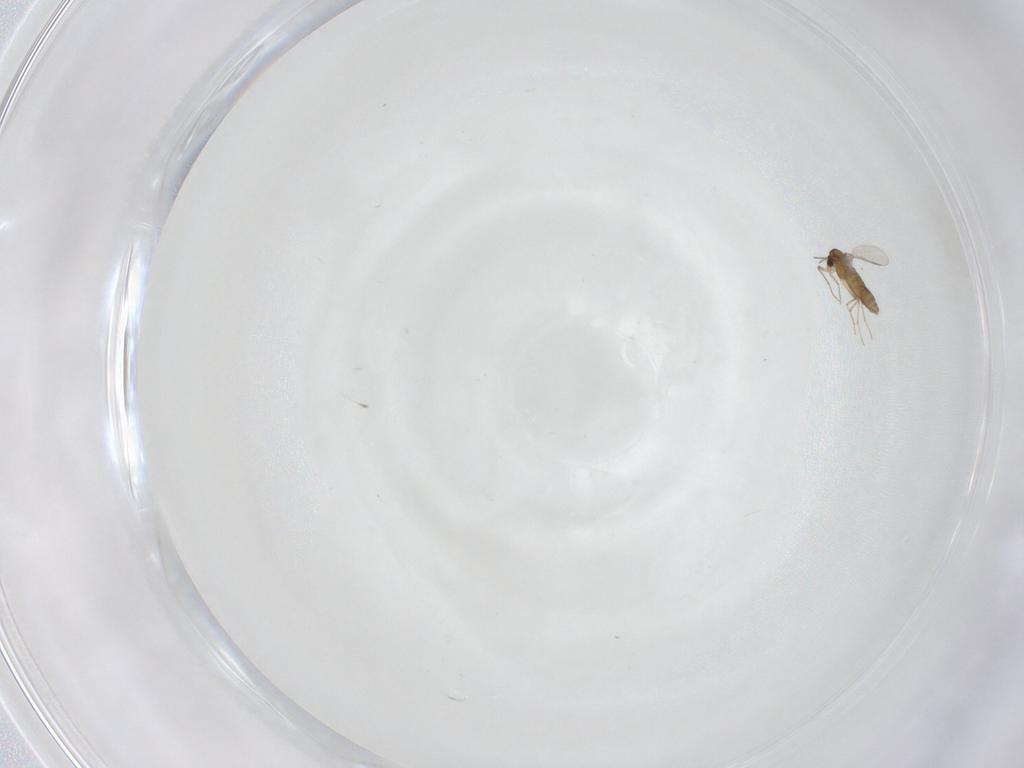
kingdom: Animalia
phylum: Arthropoda
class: Insecta
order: Diptera
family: Chironomidae
